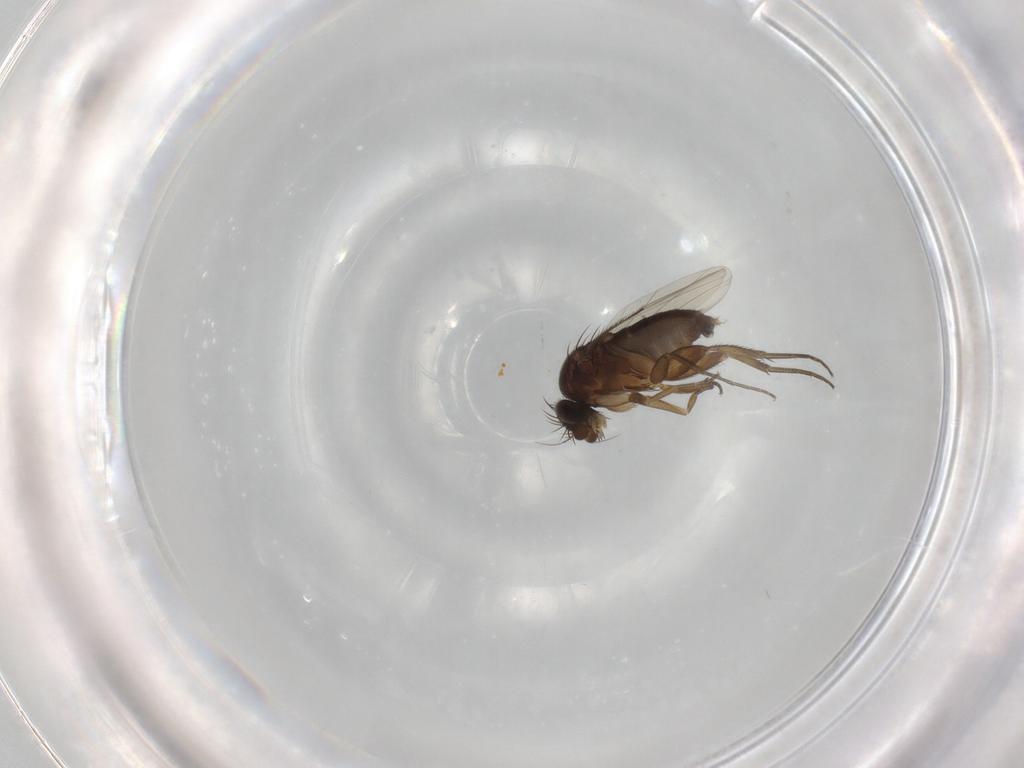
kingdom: Animalia
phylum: Arthropoda
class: Insecta
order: Diptera
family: Phoridae
